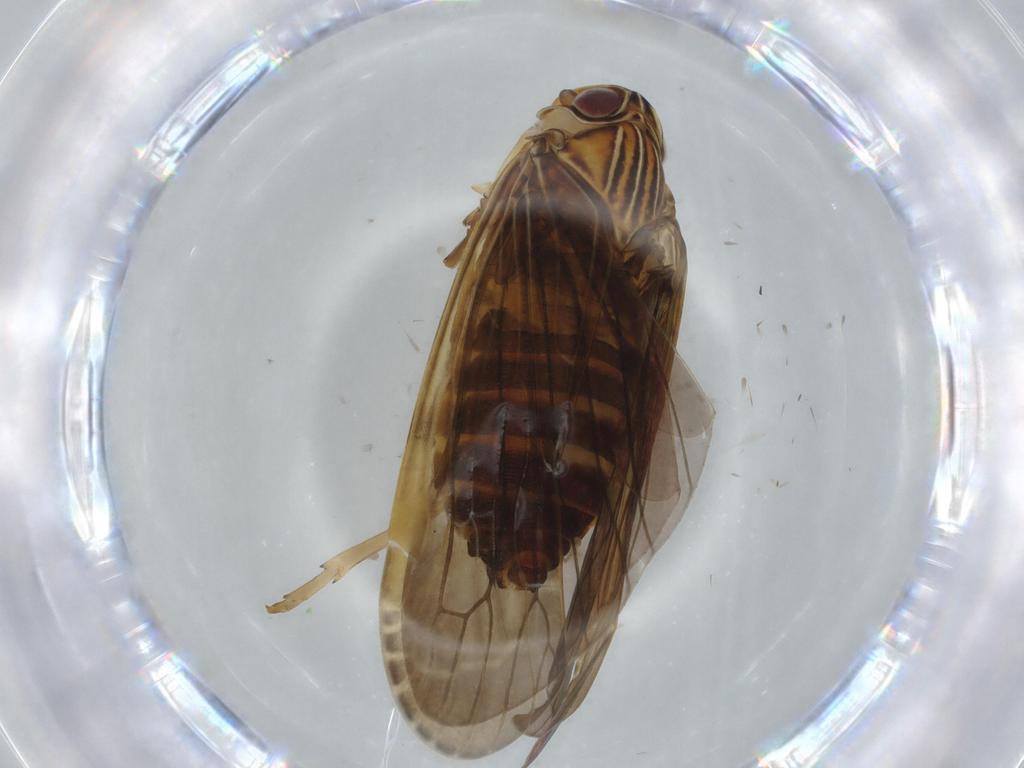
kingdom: Animalia
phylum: Arthropoda
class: Insecta
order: Hemiptera
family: Achilidae
